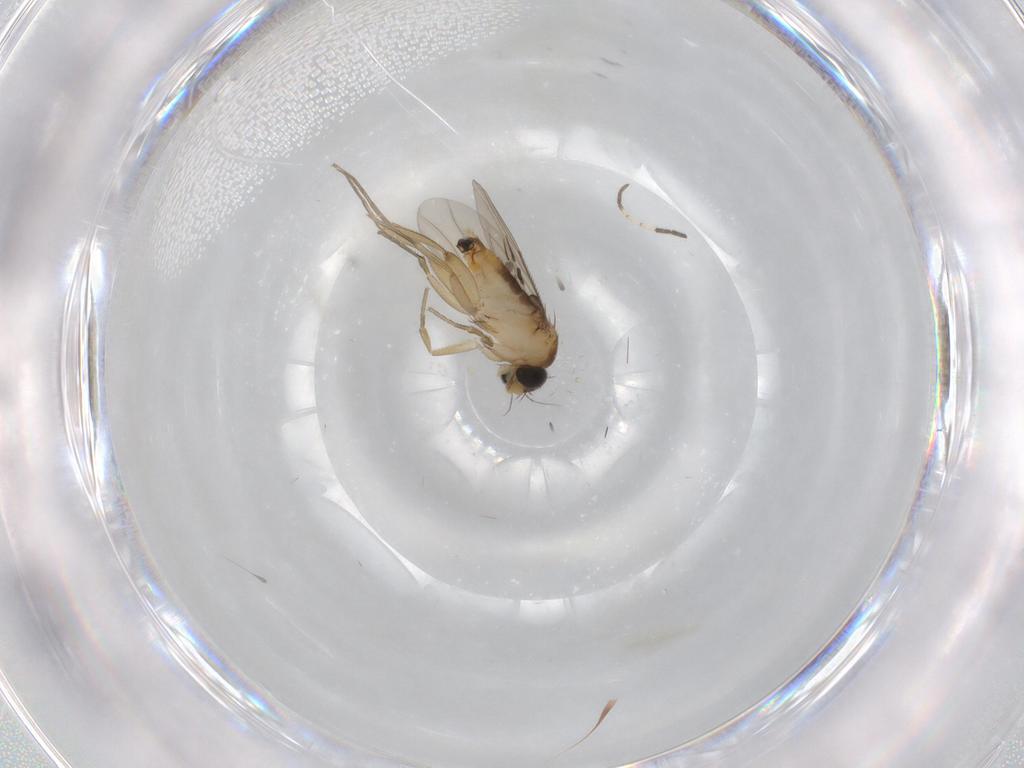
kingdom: Animalia
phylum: Arthropoda
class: Insecta
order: Diptera
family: Phoridae
